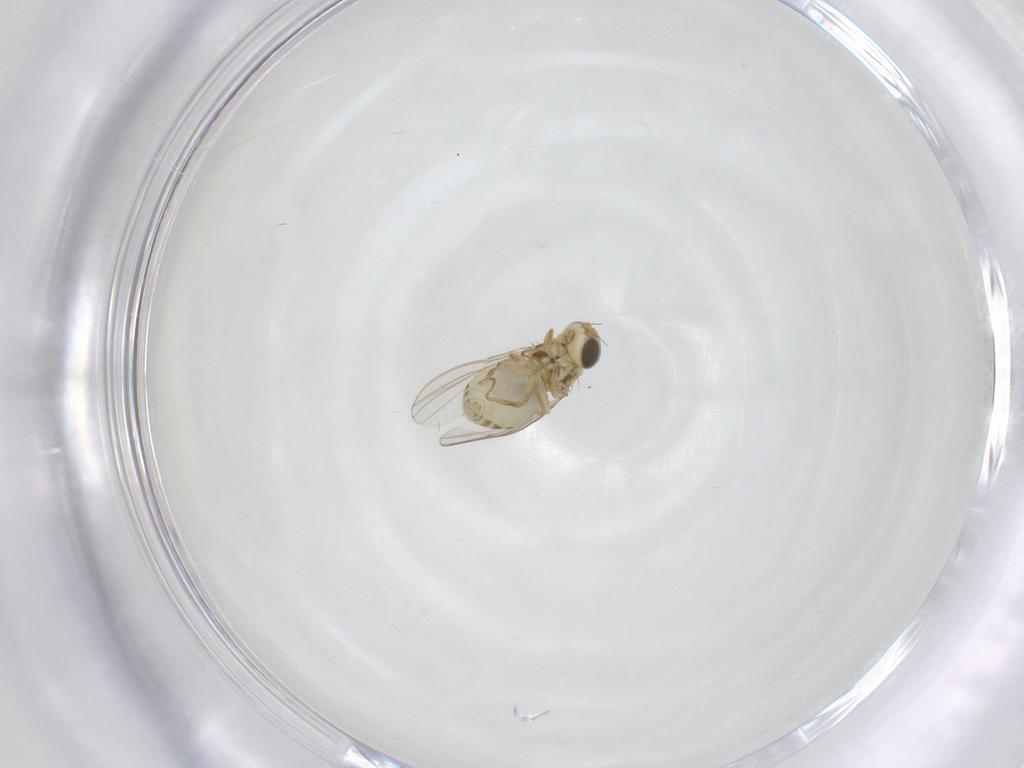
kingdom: Animalia
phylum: Arthropoda
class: Insecta
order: Diptera
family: Chyromyidae
